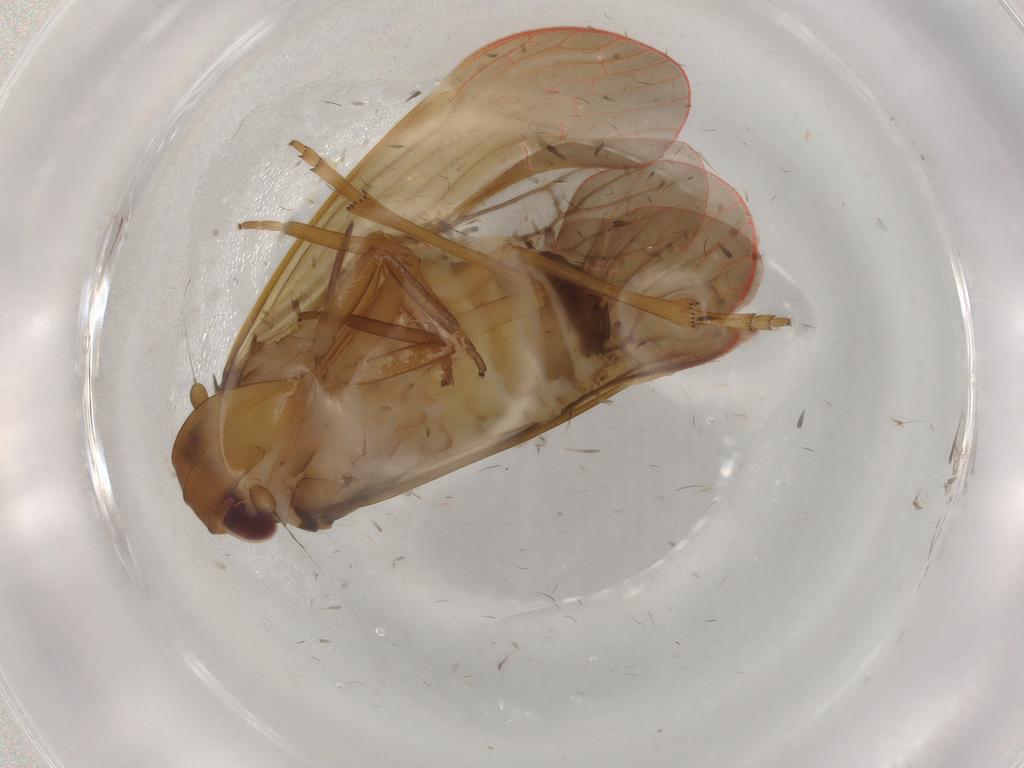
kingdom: Animalia
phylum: Arthropoda
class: Insecta
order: Hemiptera
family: Achilidae
